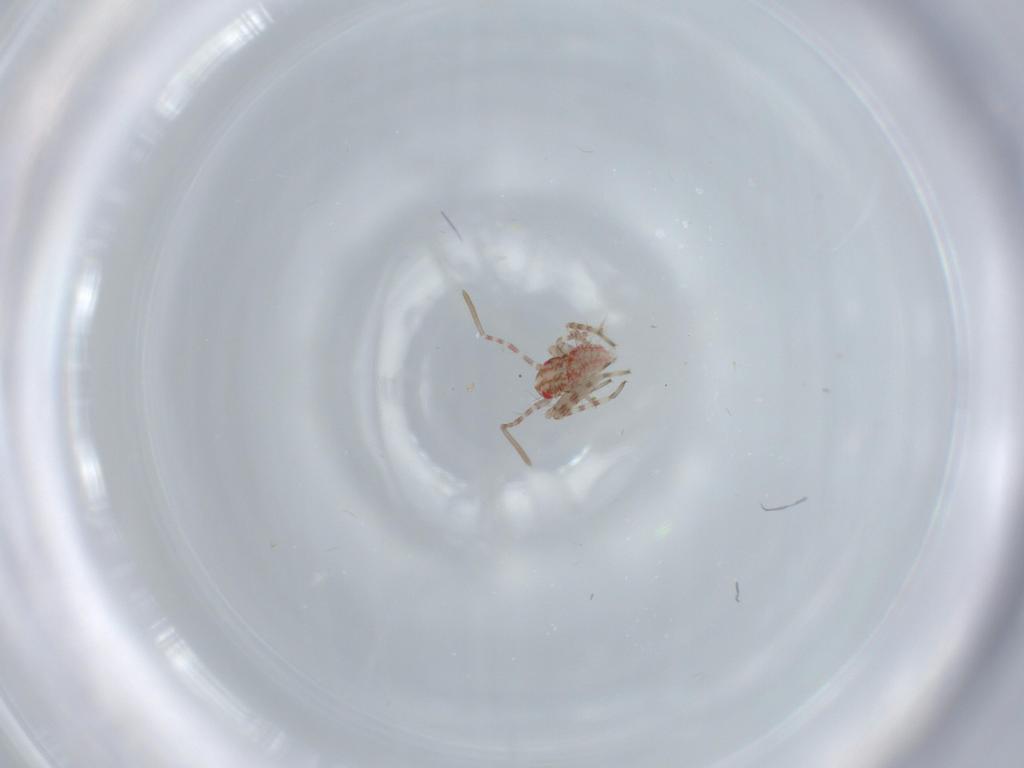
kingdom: Animalia
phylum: Arthropoda
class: Insecta
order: Hemiptera
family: Miridae
